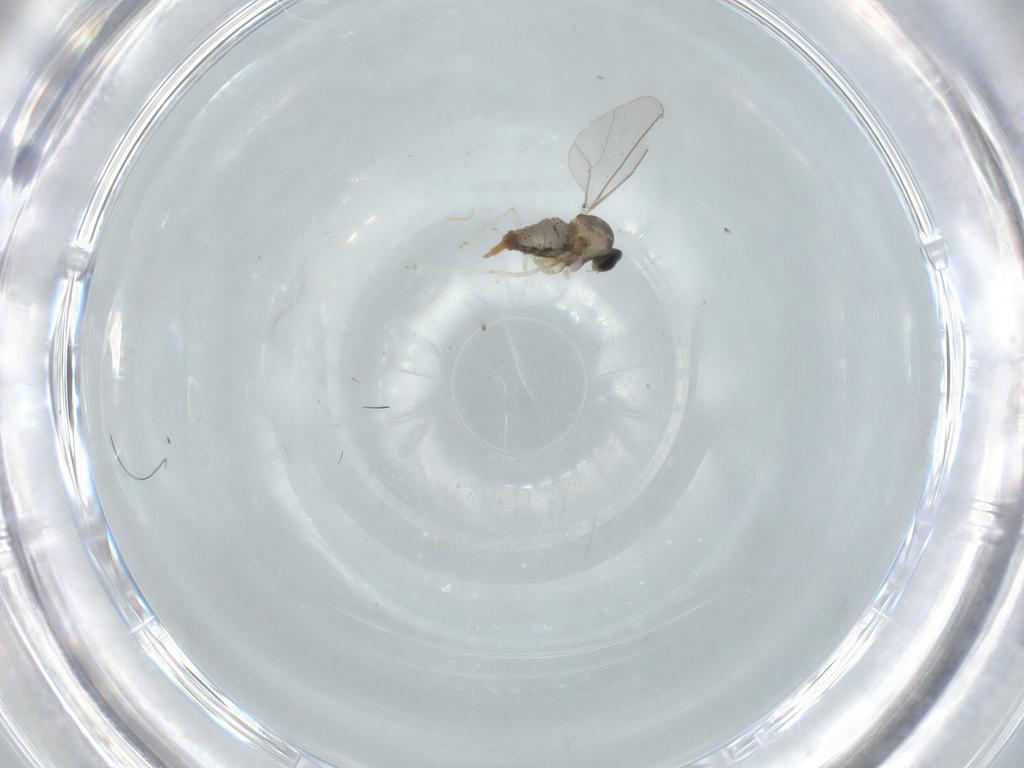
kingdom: Animalia
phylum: Arthropoda
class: Insecta
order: Diptera
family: Cecidomyiidae
